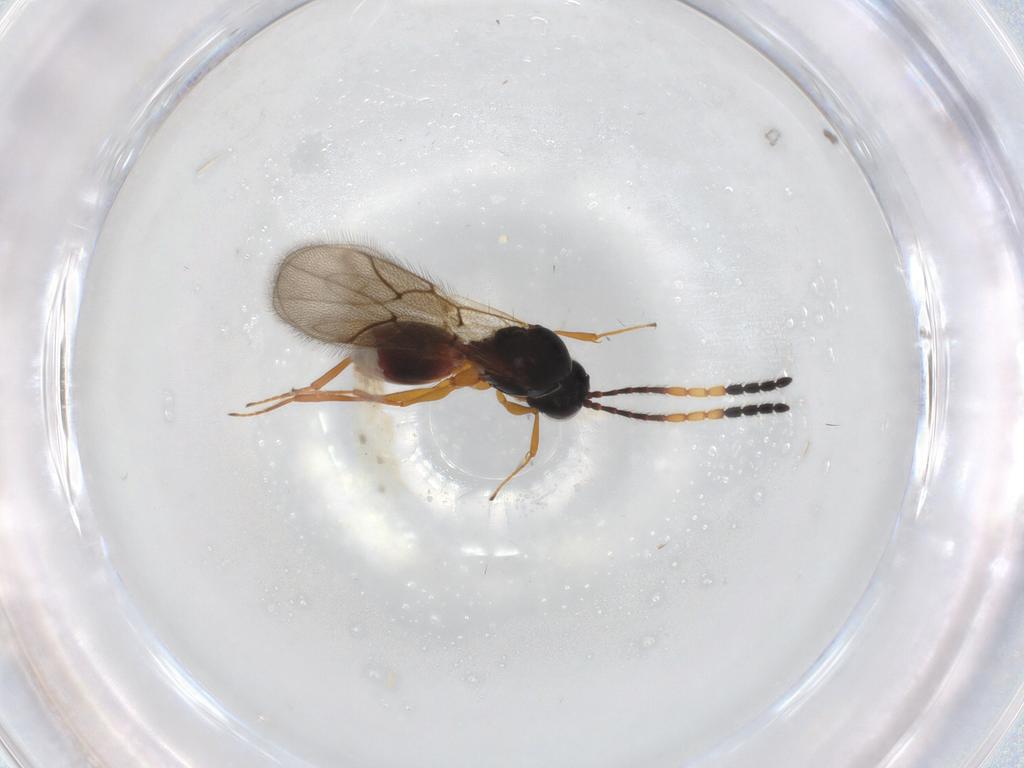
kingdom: Animalia
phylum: Arthropoda
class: Insecta
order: Hymenoptera
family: Figitidae
